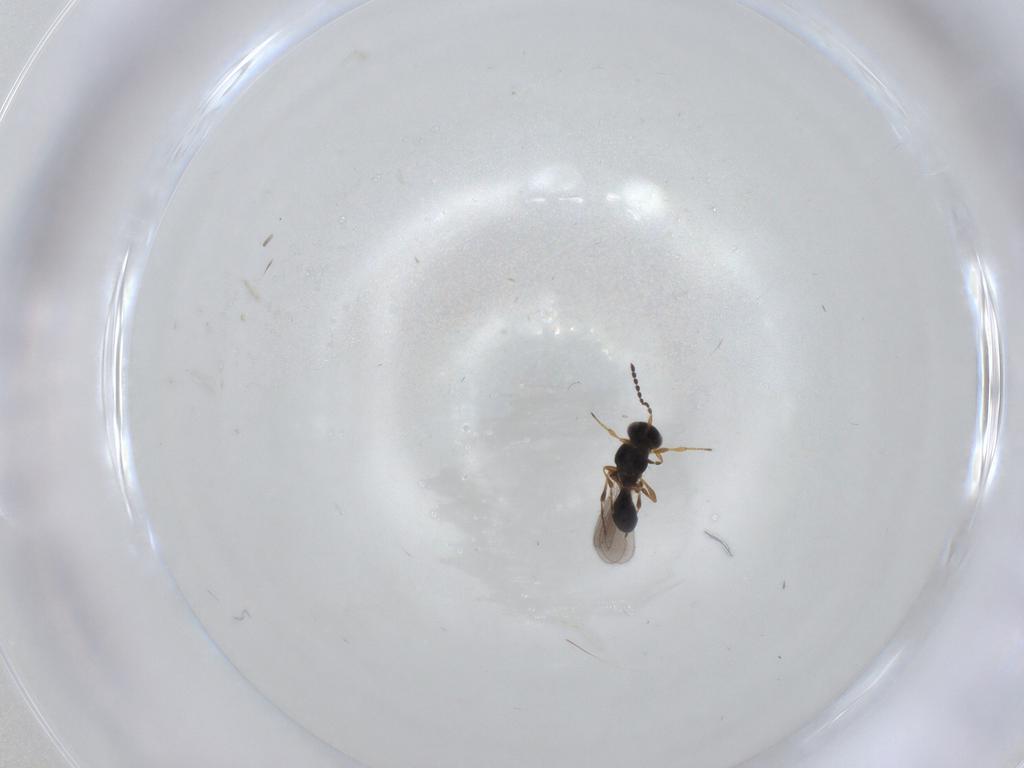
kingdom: Animalia
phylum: Arthropoda
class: Insecta
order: Hymenoptera
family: Platygastridae
